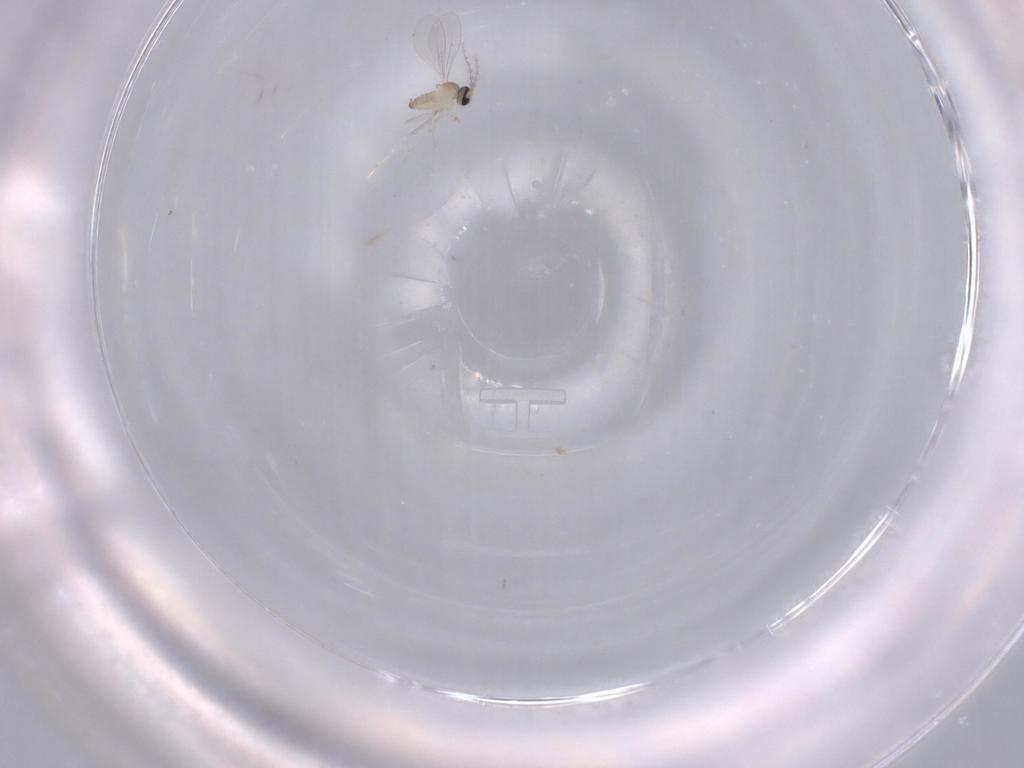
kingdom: Animalia
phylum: Arthropoda
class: Insecta
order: Diptera
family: Cecidomyiidae
